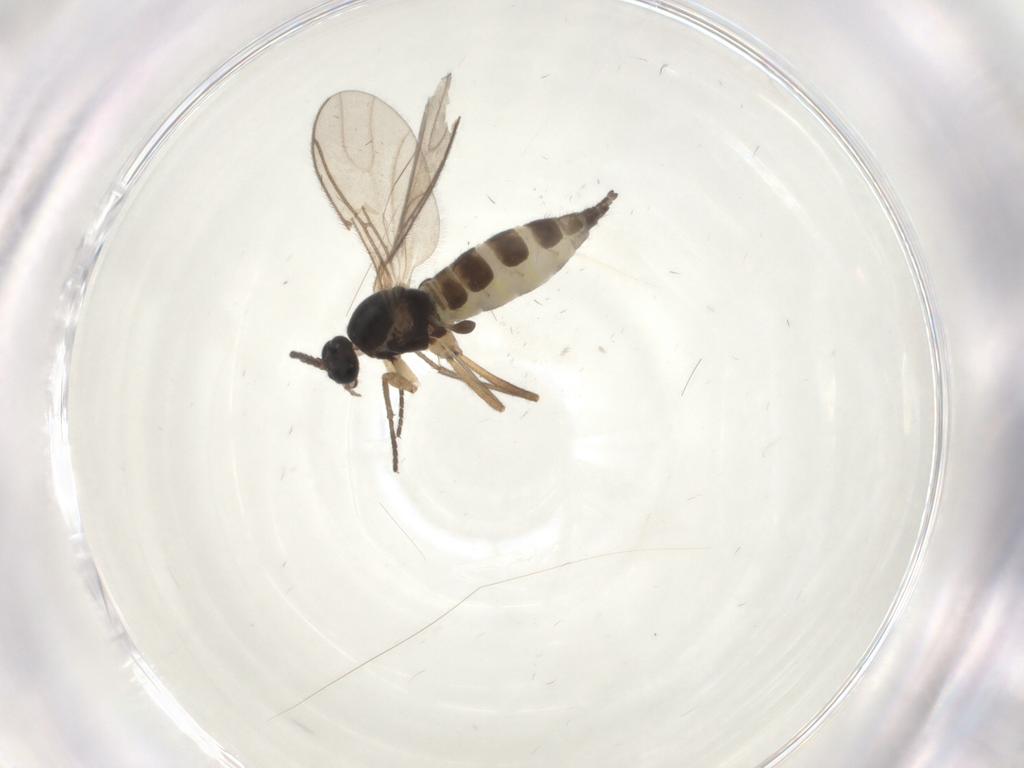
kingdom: Animalia
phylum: Arthropoda
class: Insecta
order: Diptera
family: Sciaridae
